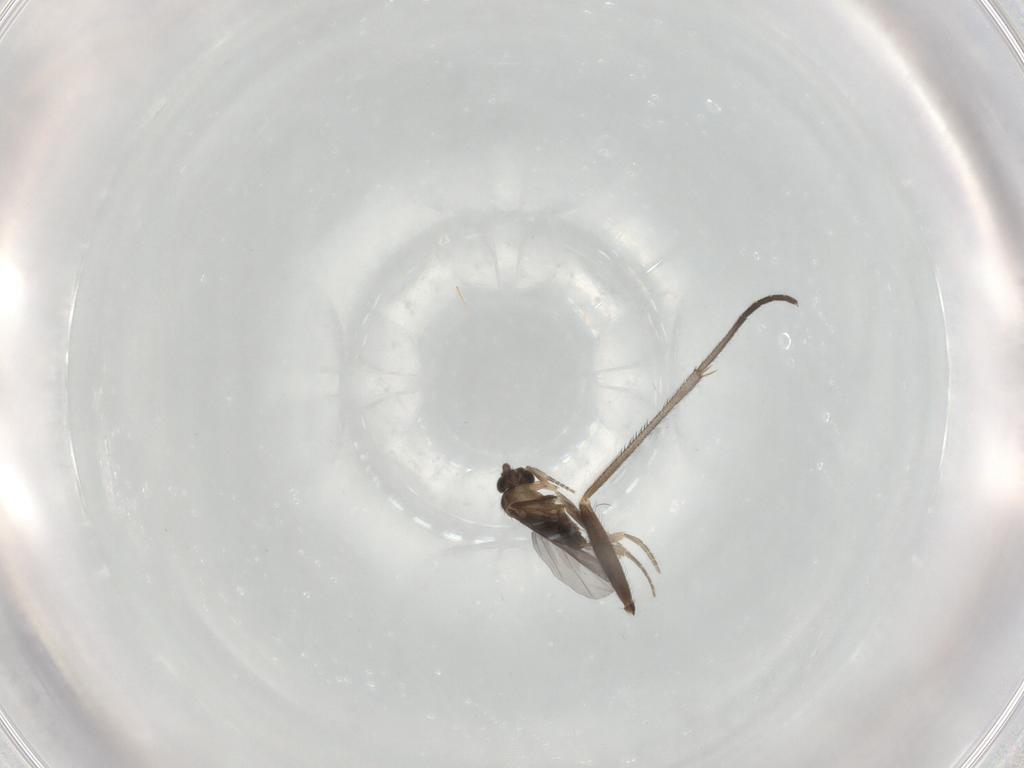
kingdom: Animalia
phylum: Arthropoda
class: Insecta
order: Diptera
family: Sciaridae
